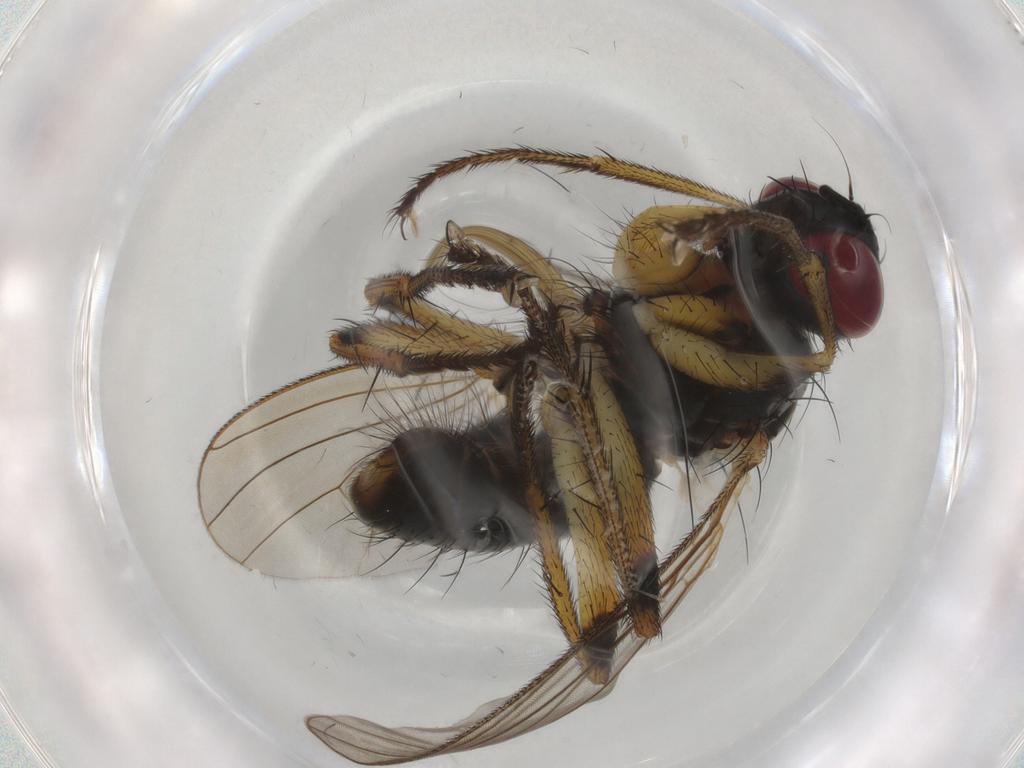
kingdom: Animalia
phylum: Arthropoda
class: Insecta
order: Diptera
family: Muscidae
